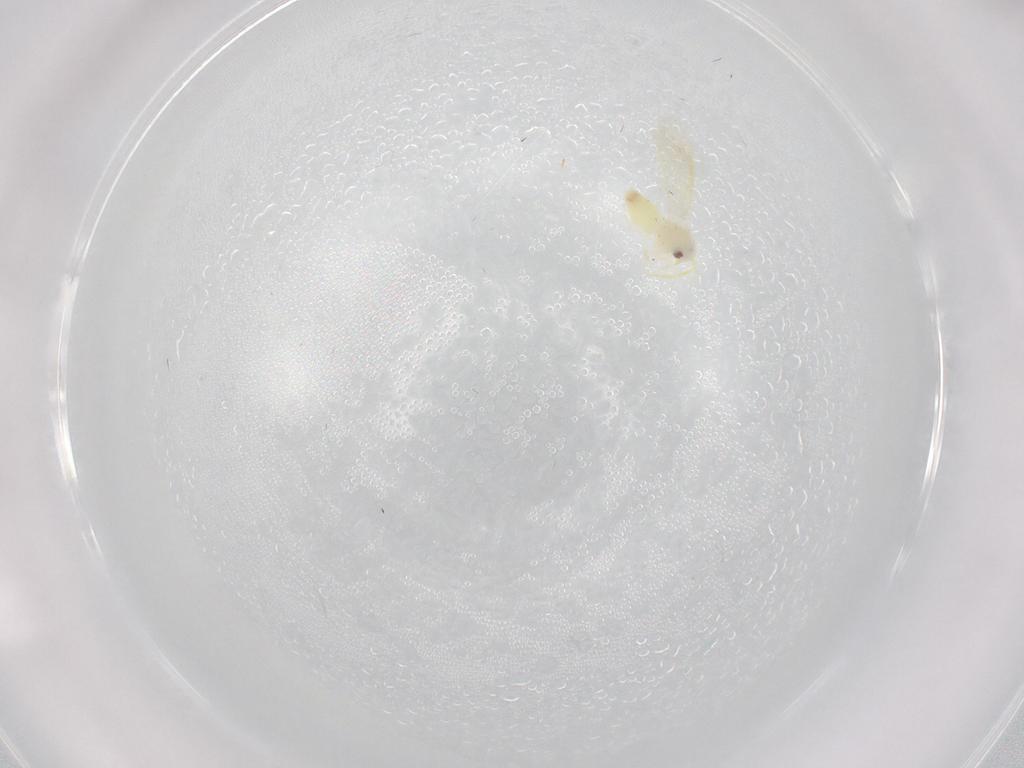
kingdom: Animalia
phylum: Arthropoda
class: Insecta
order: Hemiptera
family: Aleyrodidae
